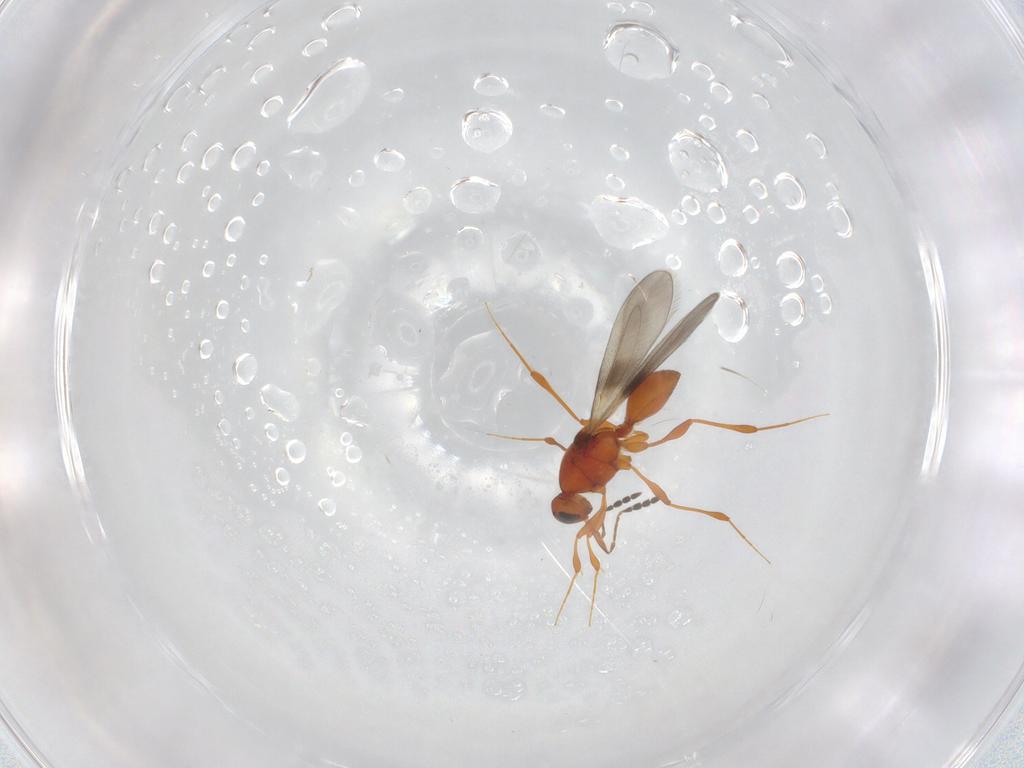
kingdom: Animalia
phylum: Arthropoda
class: Insecta
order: Hymenoptera
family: Platygastridae
